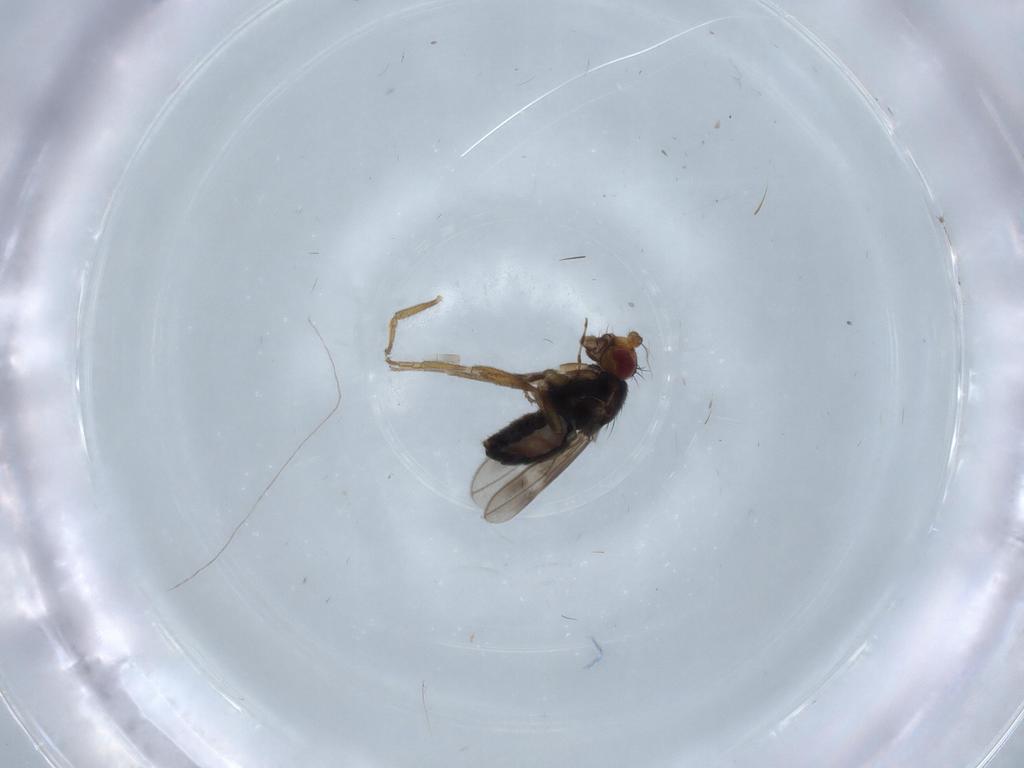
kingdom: Animalia
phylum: Arthropoda
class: Insecta
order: Diptera
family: Sphaeroceridae
